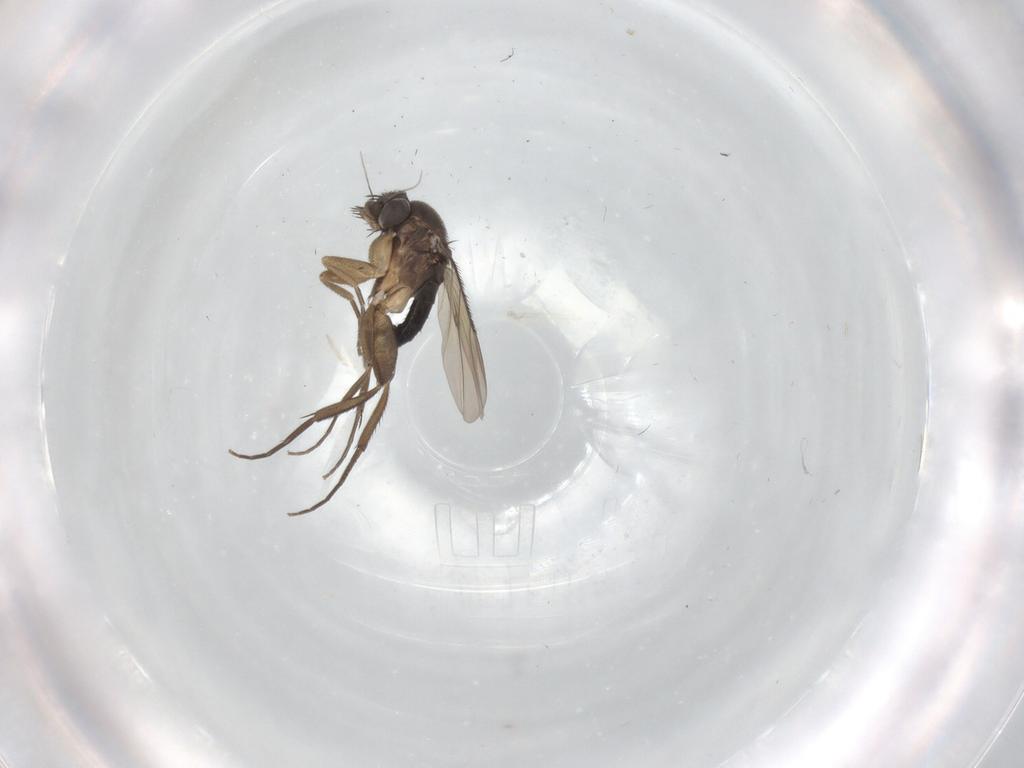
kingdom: Animalia
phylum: Arthropoda
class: Insecta
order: Diptera
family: Phoridae
